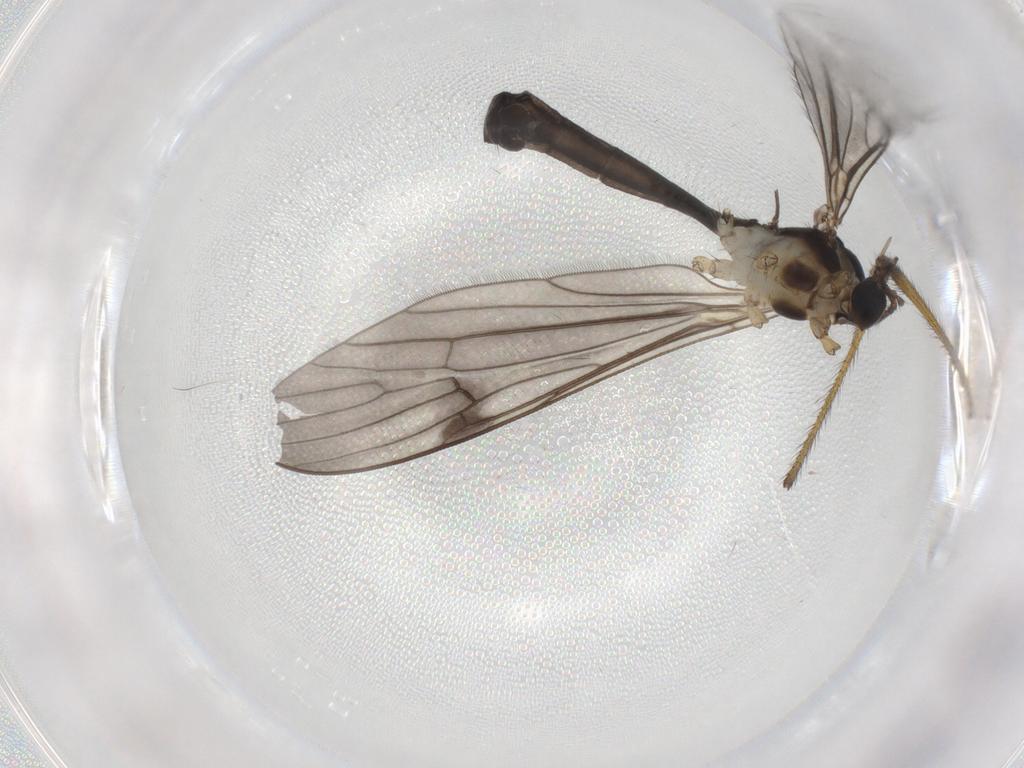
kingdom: Animalia
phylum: Arthropoda
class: Insecta
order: Diptera
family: Limoniidae
